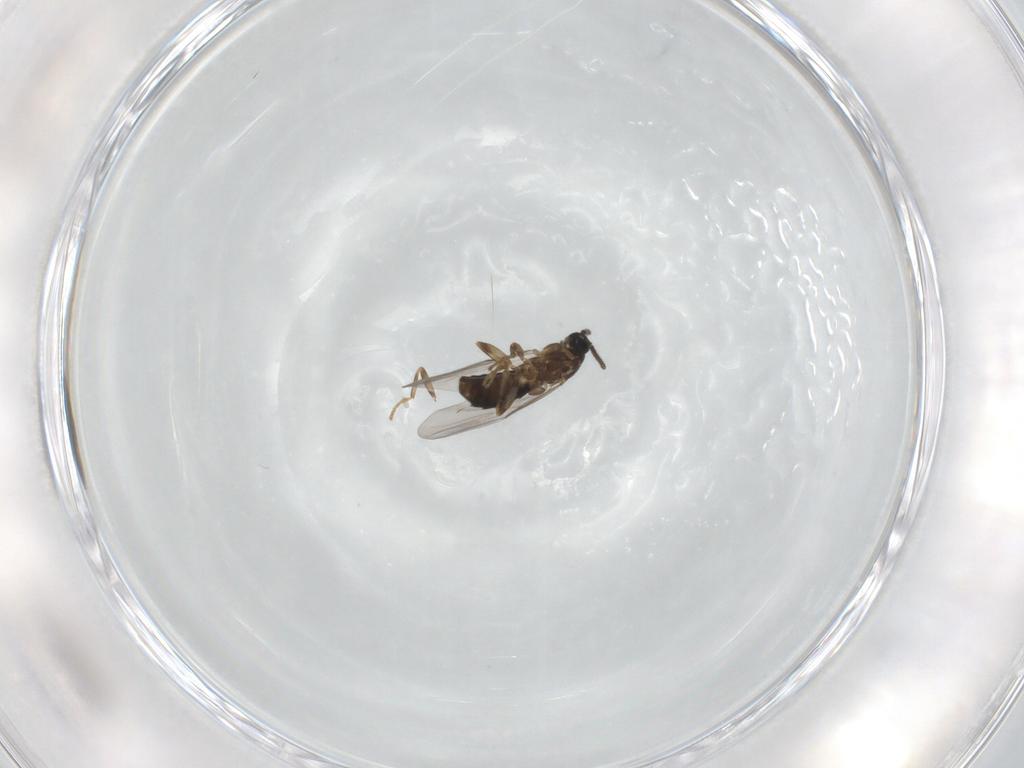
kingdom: Animalia
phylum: Arthropoda
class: Insecta
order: Diptera
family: Scatopsidae
